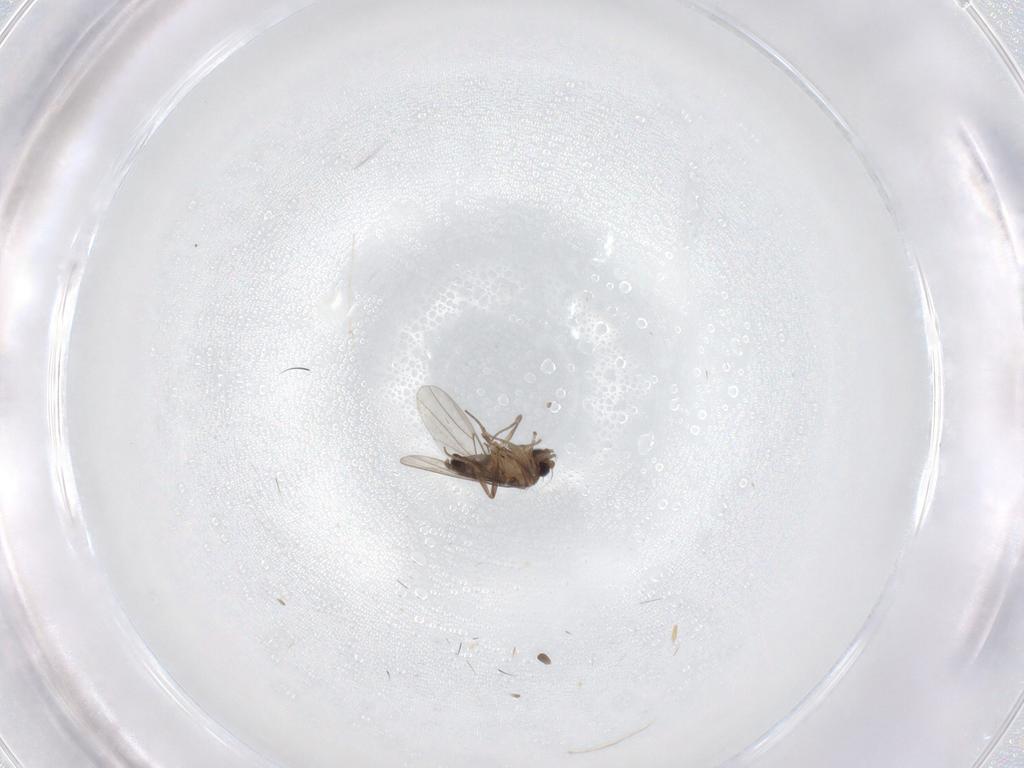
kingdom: Animalia
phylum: Arthropoda
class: Insecta
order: Diptera
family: Phoridae
